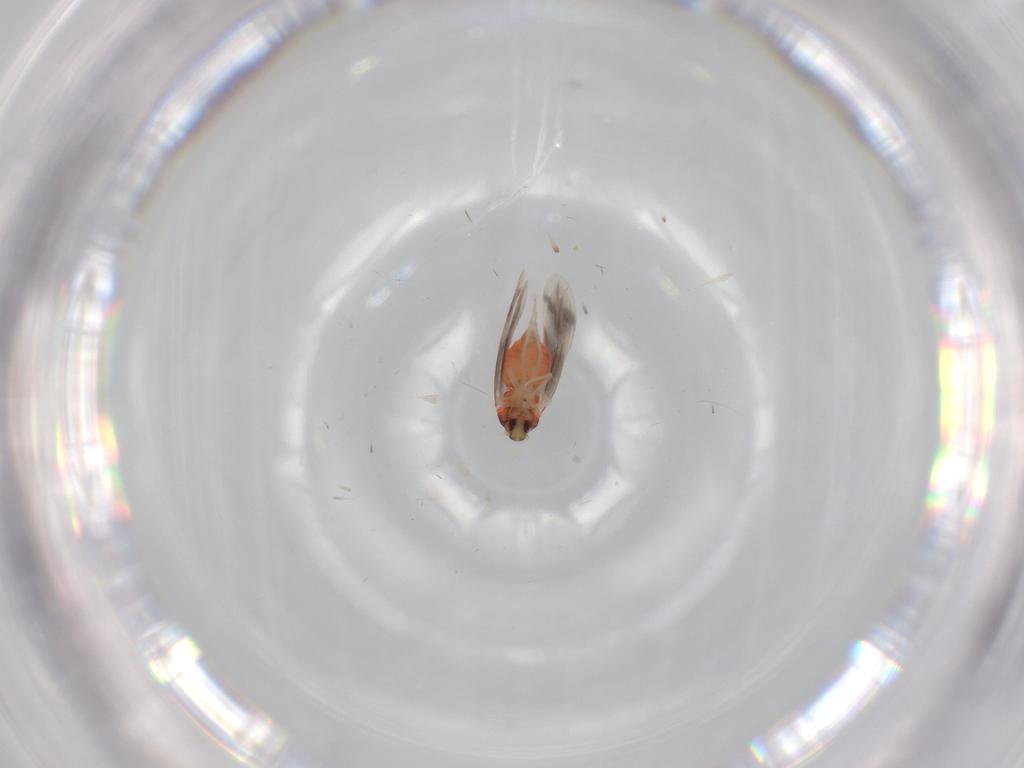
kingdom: Animalia
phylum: Arthropoda
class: Insecta
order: Hemiptera
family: Aleyrodidae
